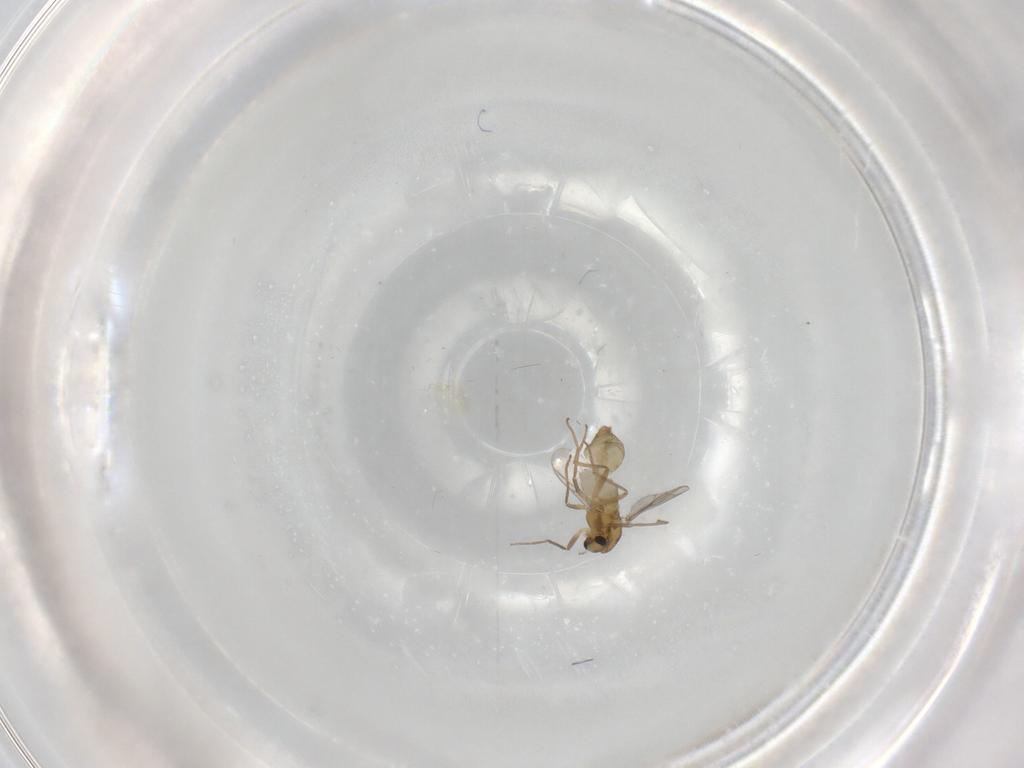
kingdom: Animalia
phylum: Arthropoda
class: Insecta
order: Diptera
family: Chironomidae
